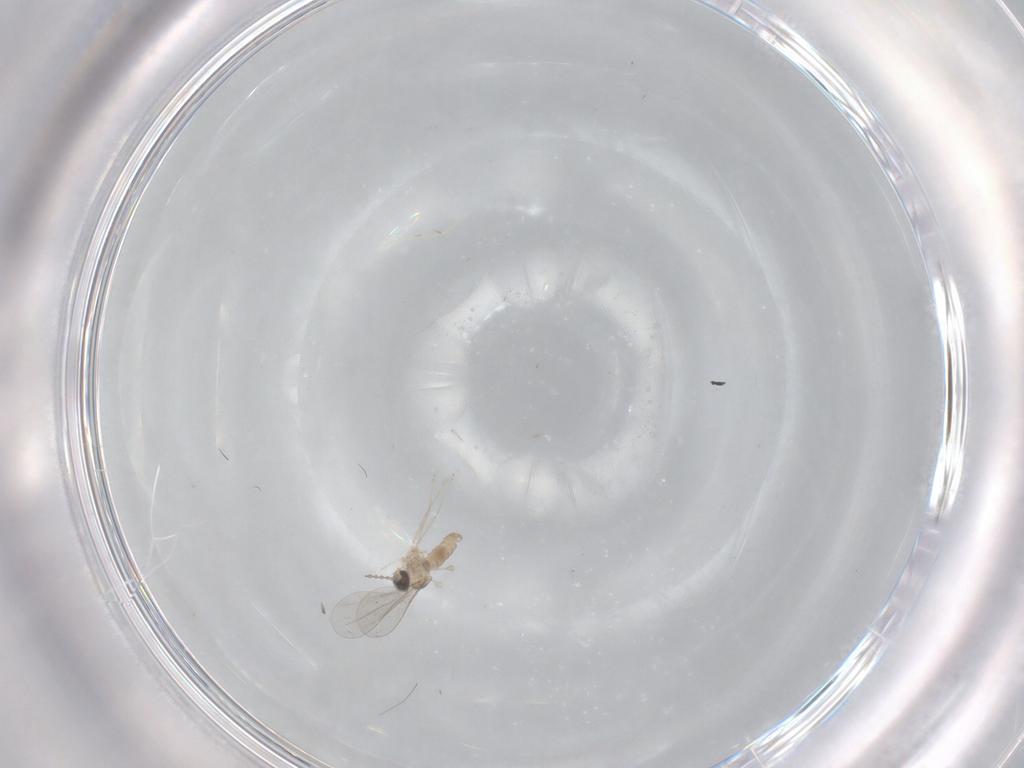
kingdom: Animalia
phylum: Arthropoda
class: Insecta
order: Diptera
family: Cecidomyiidae
